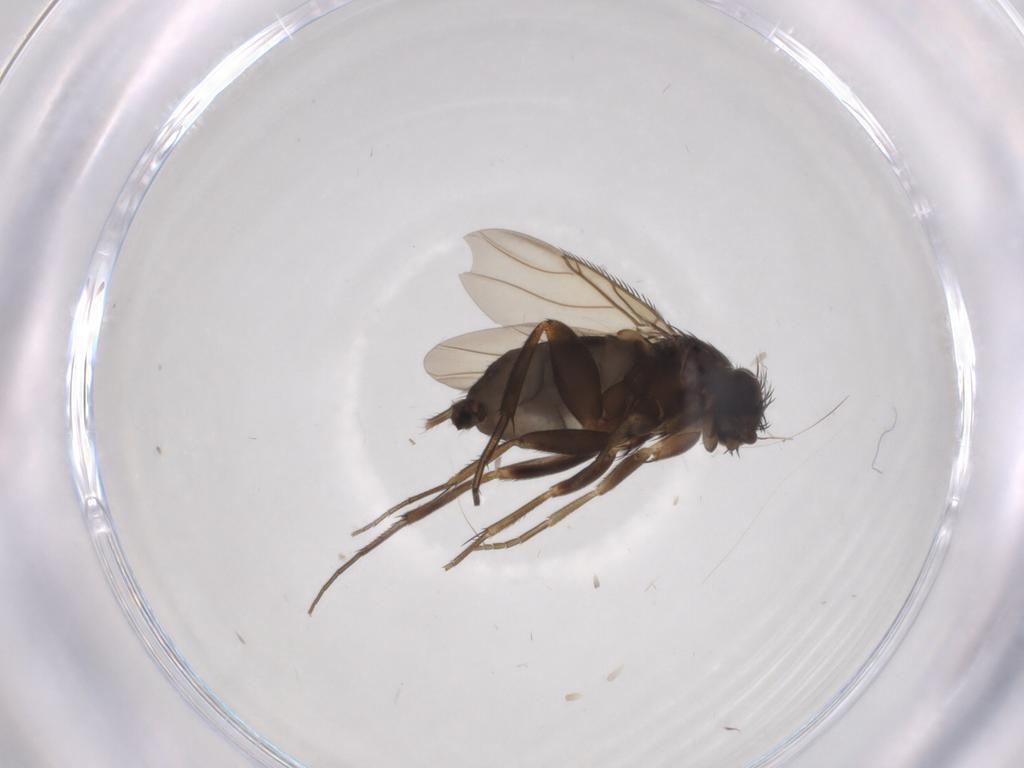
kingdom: Animalia
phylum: Arthropoda
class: Insecta
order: Diptera
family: Phoridae
